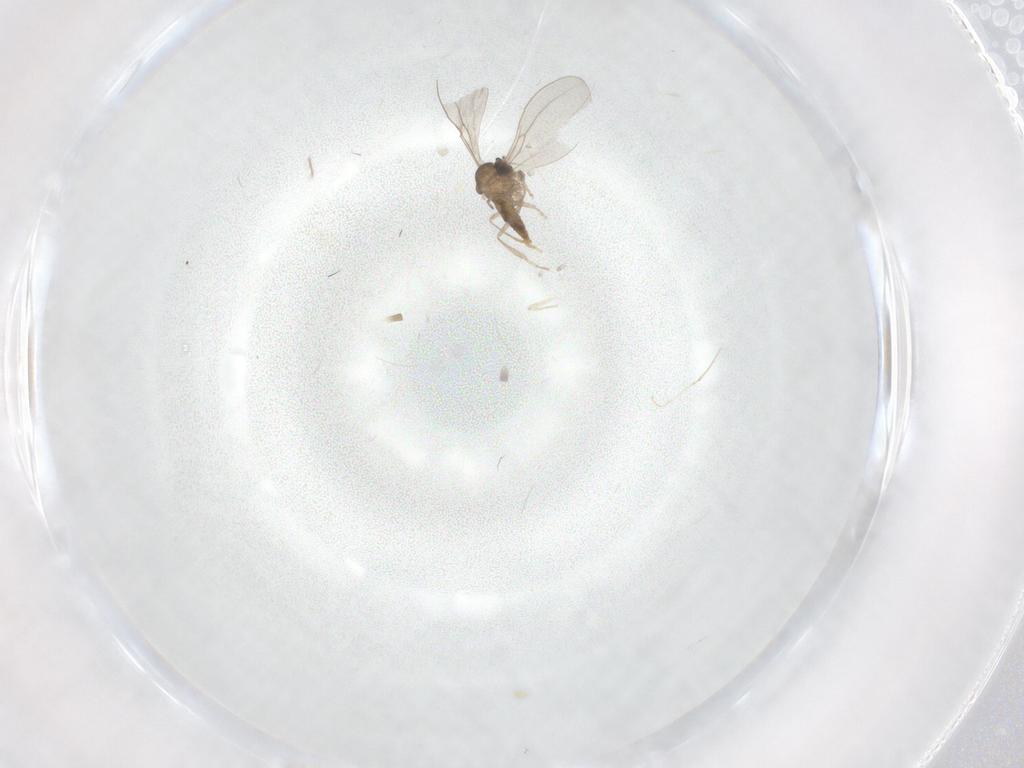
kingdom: Animalia
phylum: Arthropoda
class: Insecta
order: Diptera
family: Cecidomyiidae
